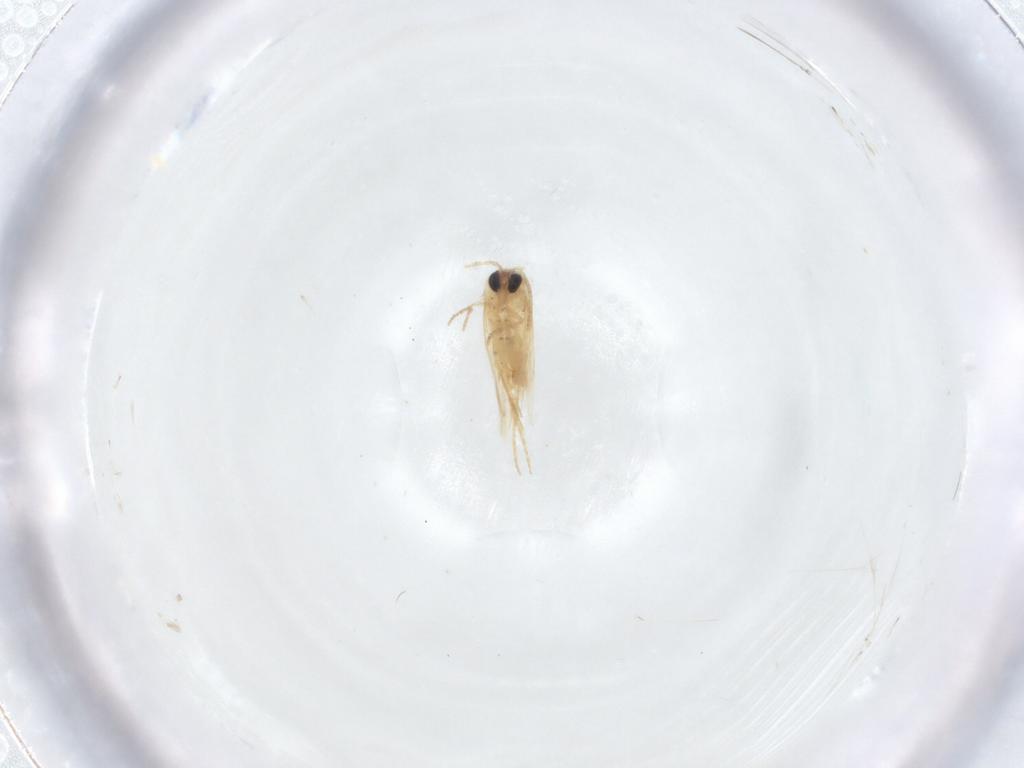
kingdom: Animalia
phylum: Arthropoda
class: Insecta
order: Lepidoptera
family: Crambidae
